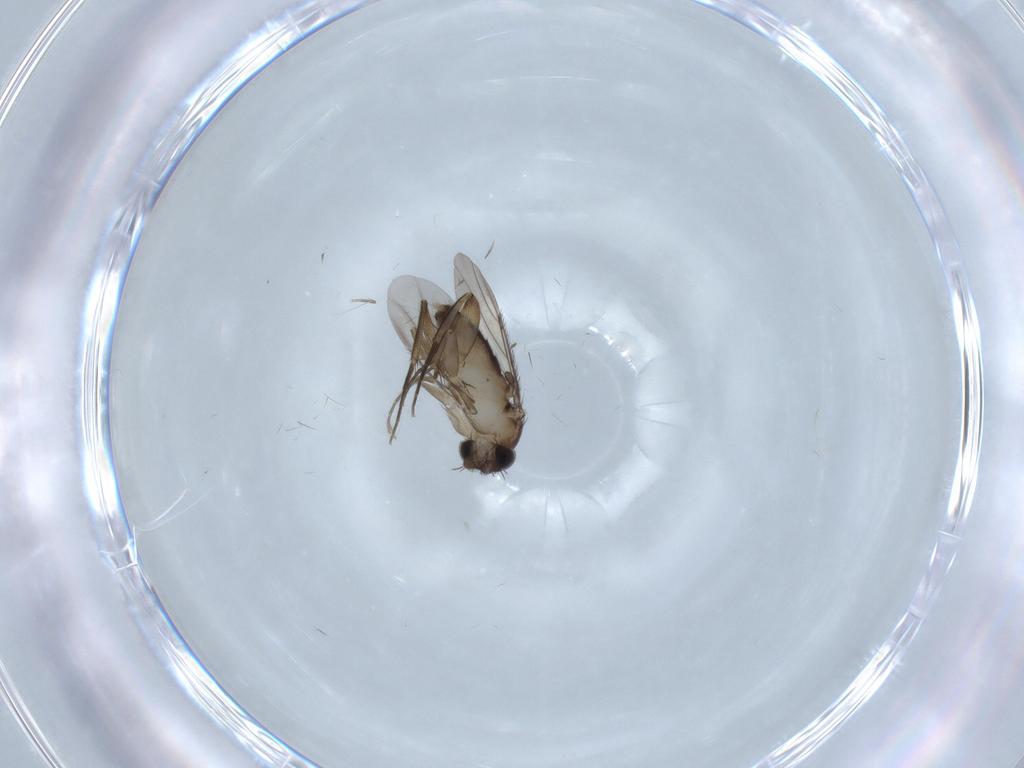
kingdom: Animalia
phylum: Arthropoda
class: Insecta
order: Diptera
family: Phoridae
